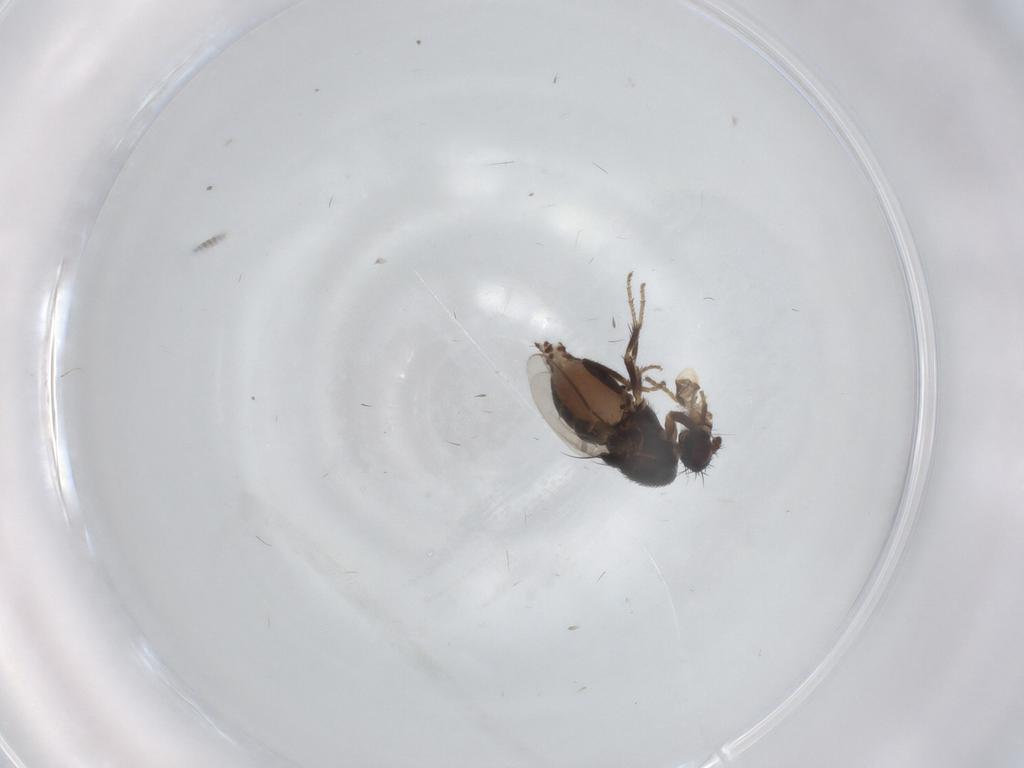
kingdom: Animalia
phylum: Arthropoda
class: Insecta
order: Diptera
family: Sphaeroceridae
